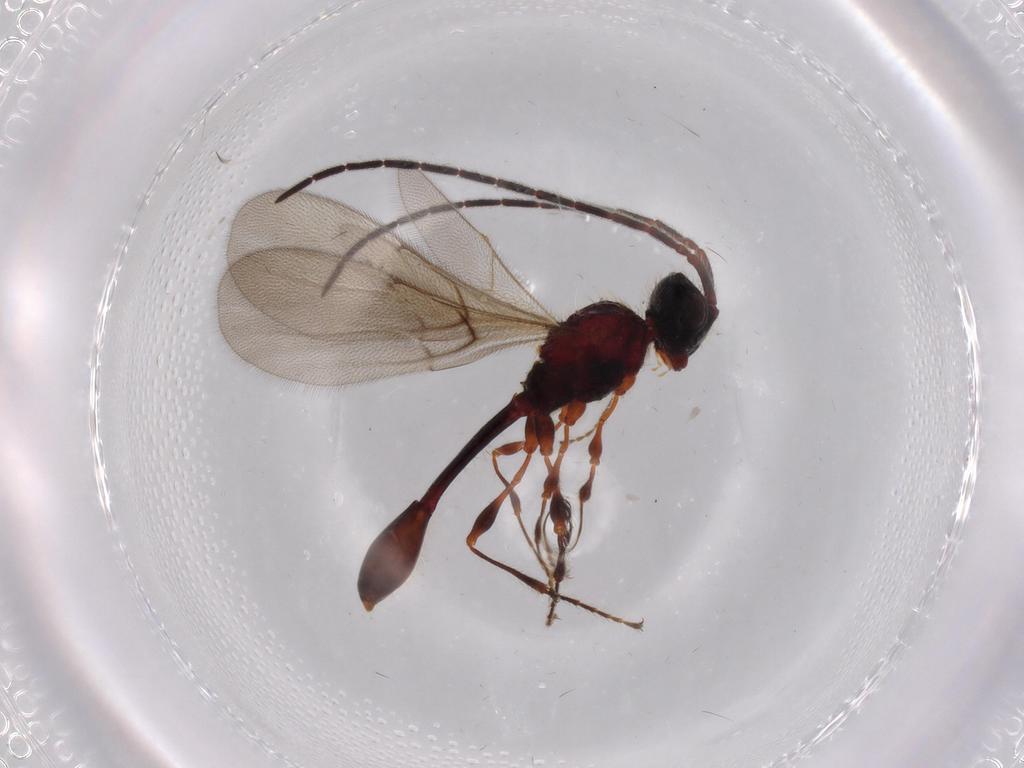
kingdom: Animalia
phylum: Arthropoda
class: Insecta
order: Hymenoptera
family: Diapriidae
